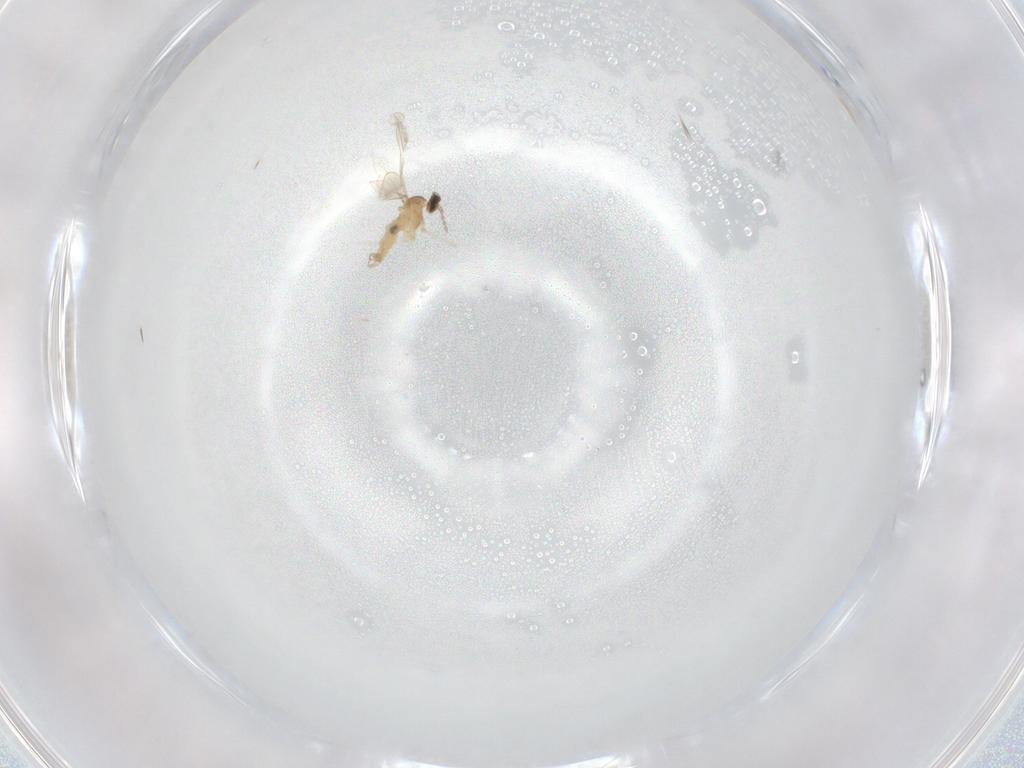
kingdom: Animalia
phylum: Arthropoda
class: Insecta
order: Diptera
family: Cecidomyiidae
